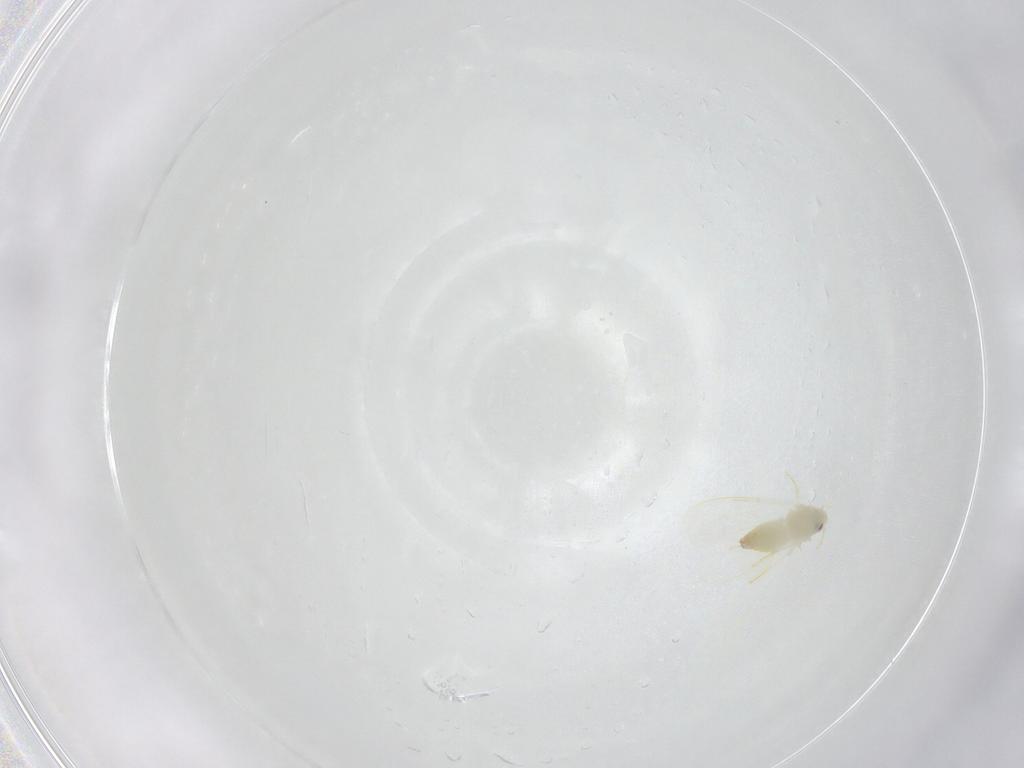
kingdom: Animalia
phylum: Arthropoda
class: Insecta
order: Hemiptera
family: Aleyrodidae
